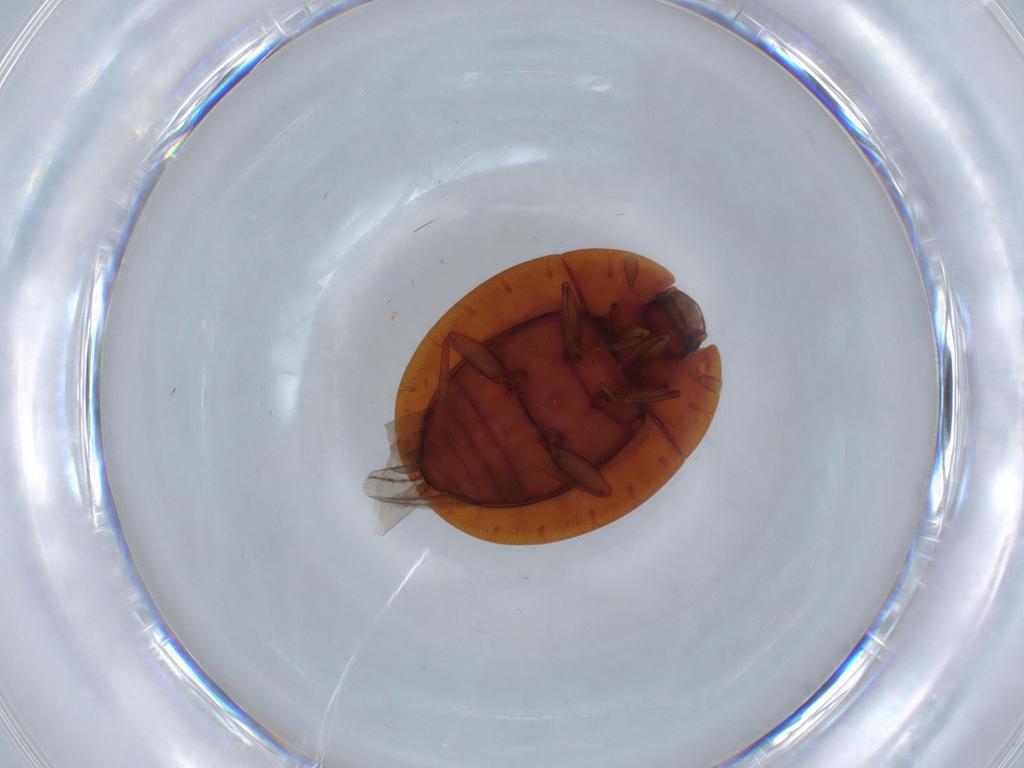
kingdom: Animalia
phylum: Arthropoda
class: Insecta
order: Coleoptera
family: Discolomatidae
